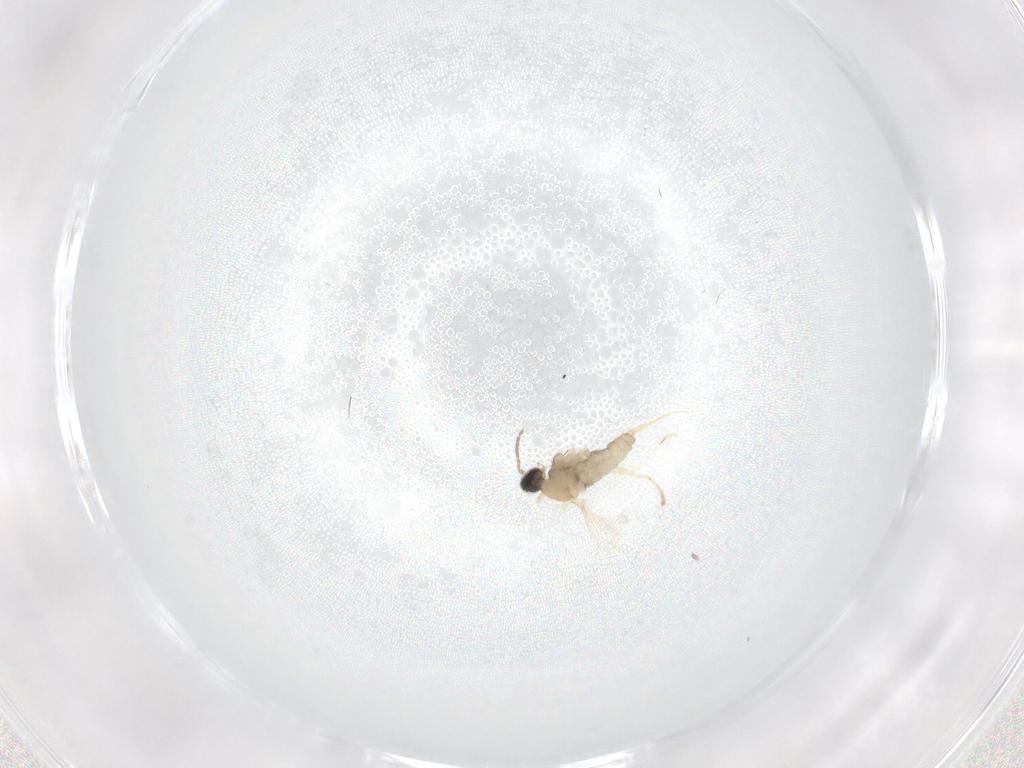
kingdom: Animalia
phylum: Arthropoda
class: Insecta
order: Diptera
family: Cecidomyiidae
